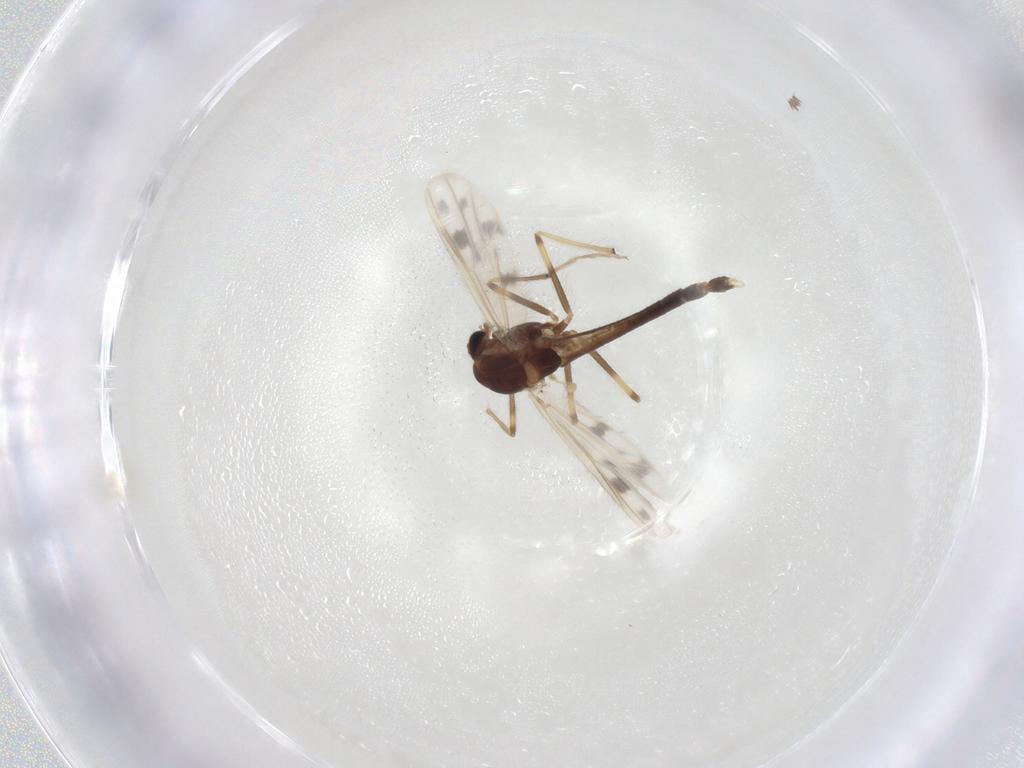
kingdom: Animalia
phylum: Arthropoda
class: Insecta
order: Diptera
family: Chironomidae
